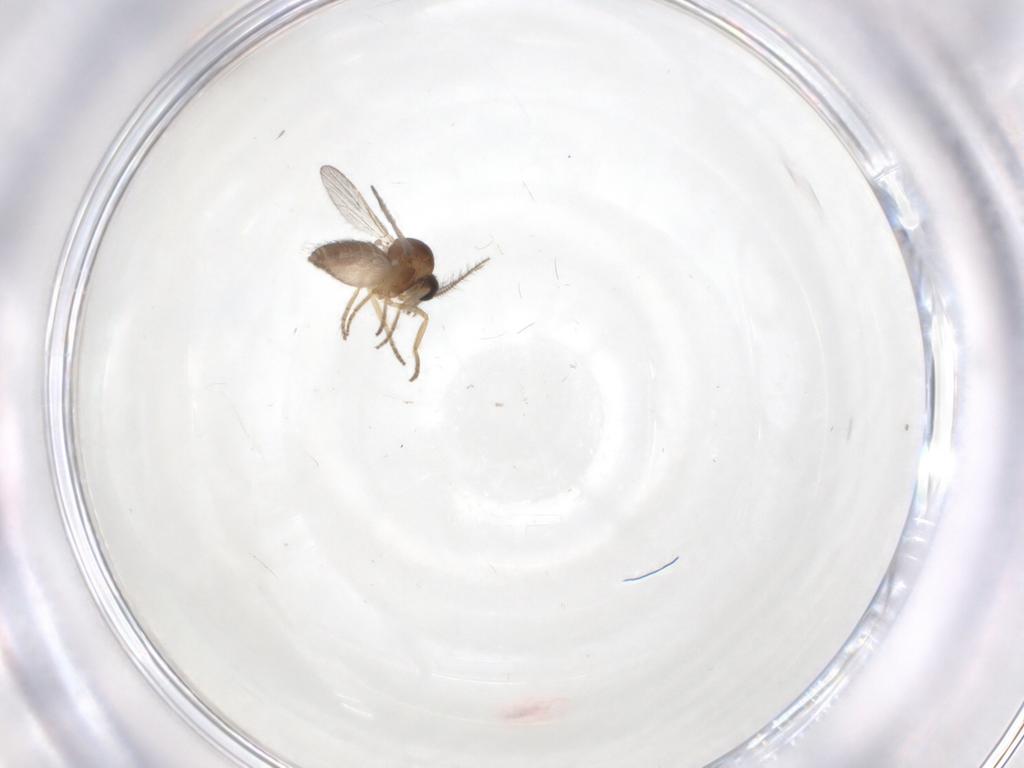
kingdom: Animalia
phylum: Arthropoda
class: Insecta
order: Diptera
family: Ceratopogonidae
